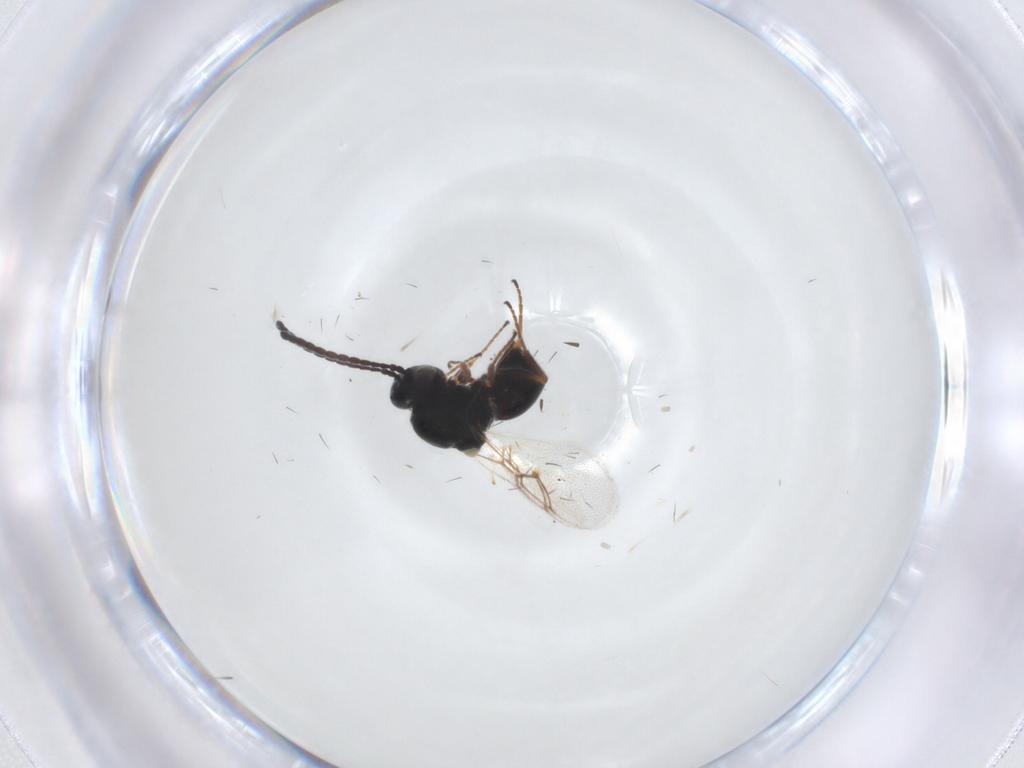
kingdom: Animalia
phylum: Arthropoda
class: Insecta
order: Hymenoptera
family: Figitidae
